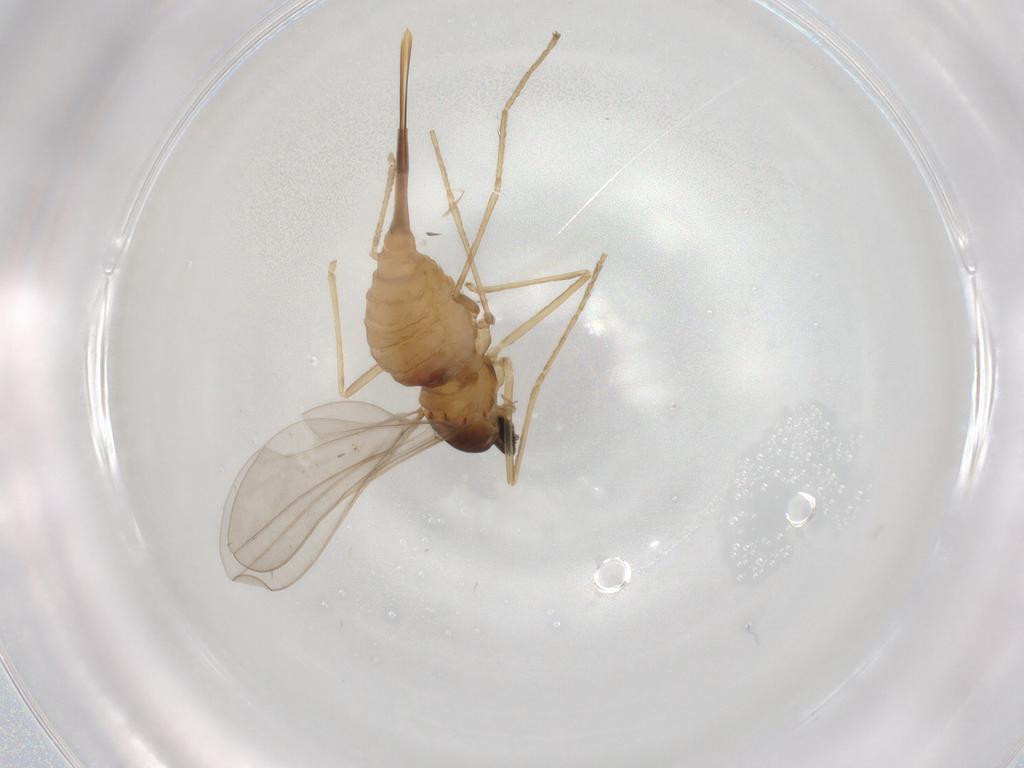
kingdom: Animalia
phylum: Arthropoda
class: Insecta
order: Diptera
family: Cecidomyiidae
